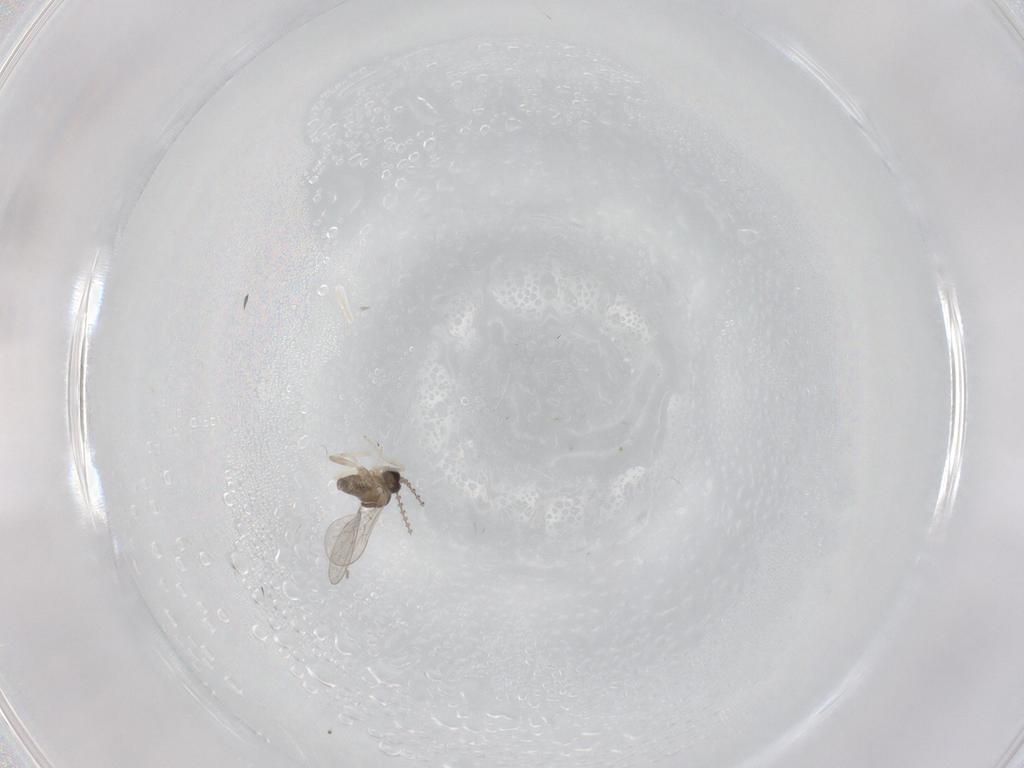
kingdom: Animalia
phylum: Arthropoda
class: Insecta
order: Diptera
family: Cecidomyiidae
